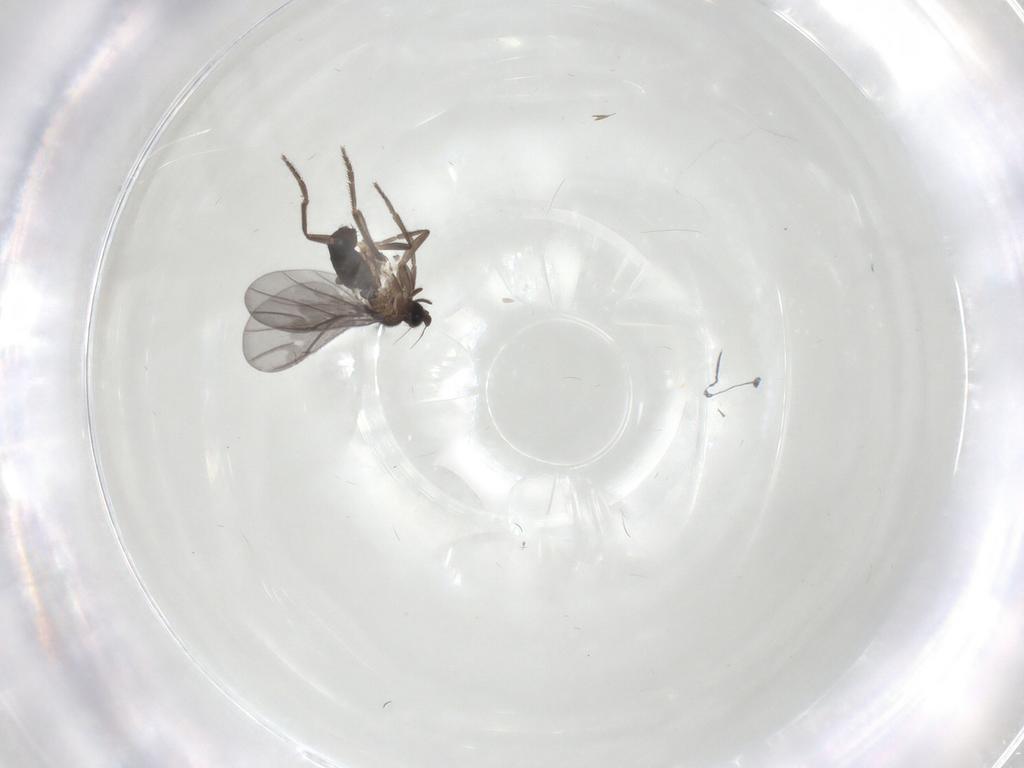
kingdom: Animalia
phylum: Arthropoda
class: Insecta
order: Diptera
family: Phoridae
